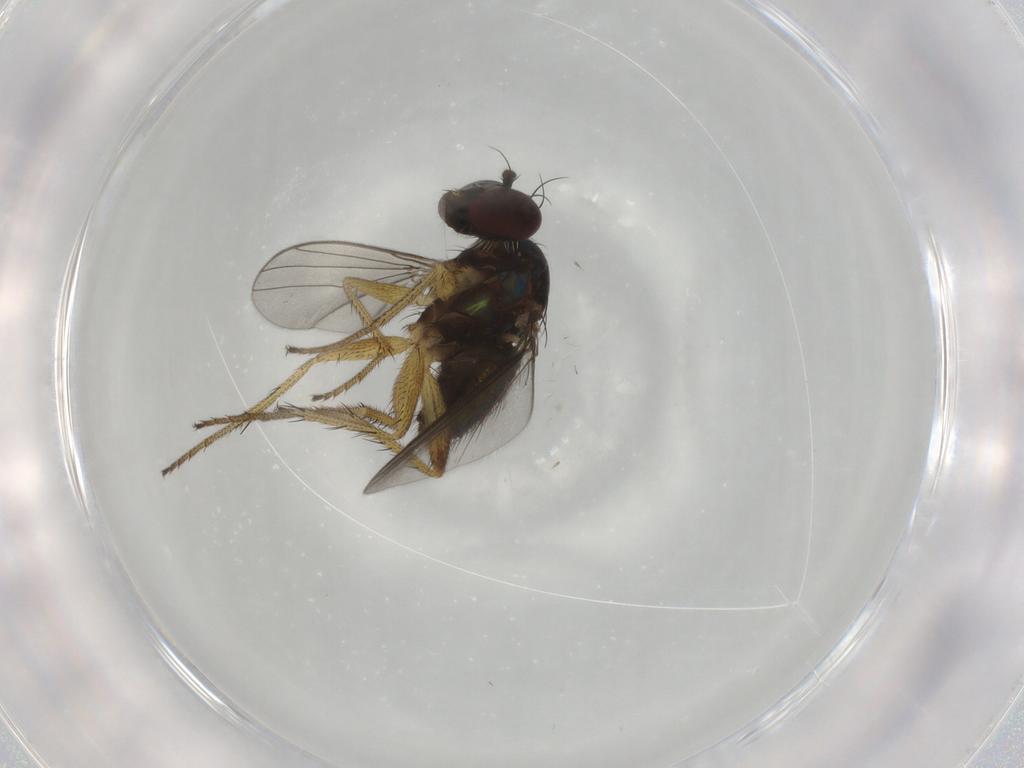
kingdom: Animalia
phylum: Arthropoda
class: Insecta
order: Diptera
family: Dolichopodidae
